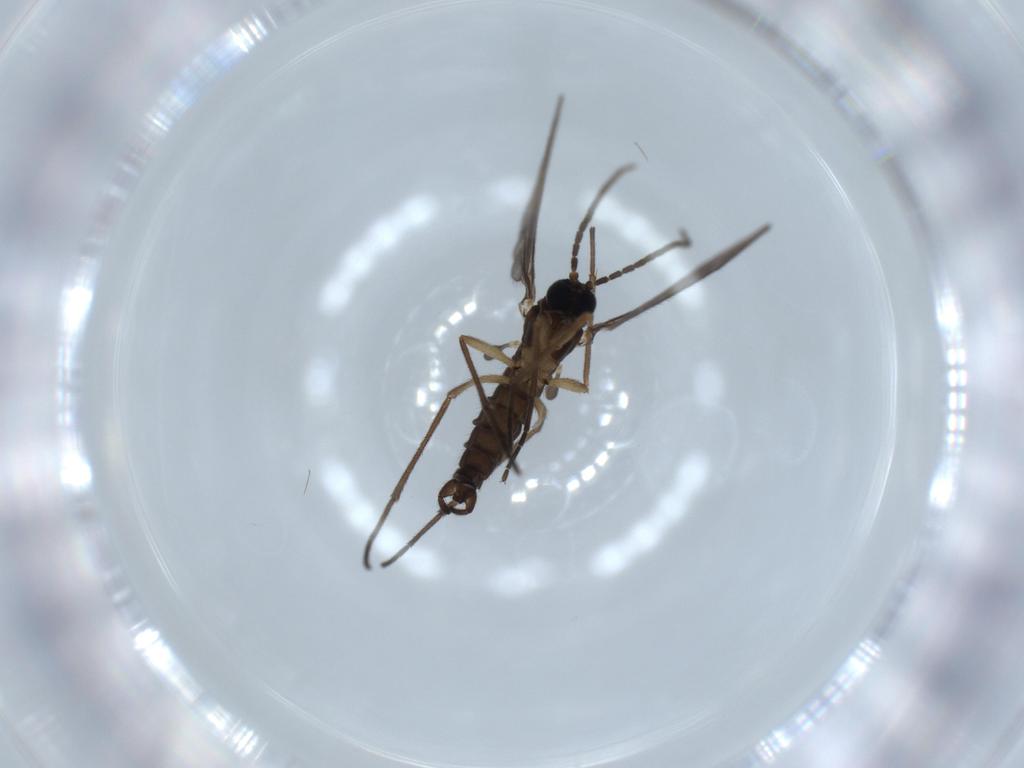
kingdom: Animalia
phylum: Arthropoda
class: Insecta
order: Diptera
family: Sciaridae
